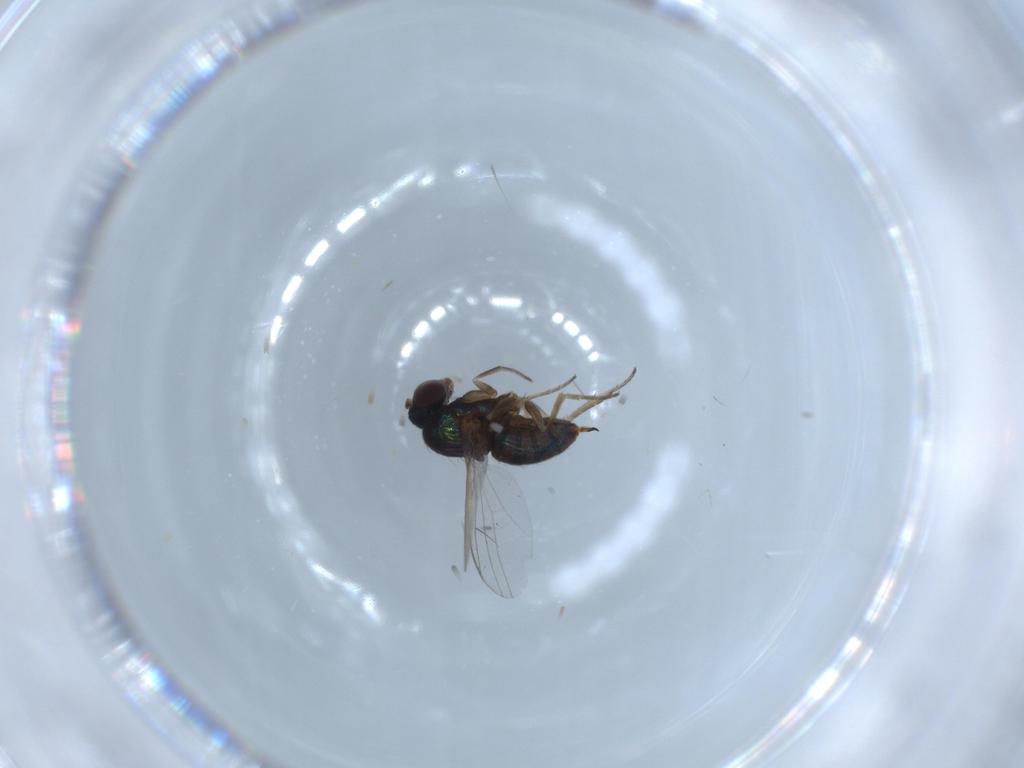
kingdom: Animalia
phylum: Arthropoda
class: Insecta
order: Diptera
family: Dolichopodidae
